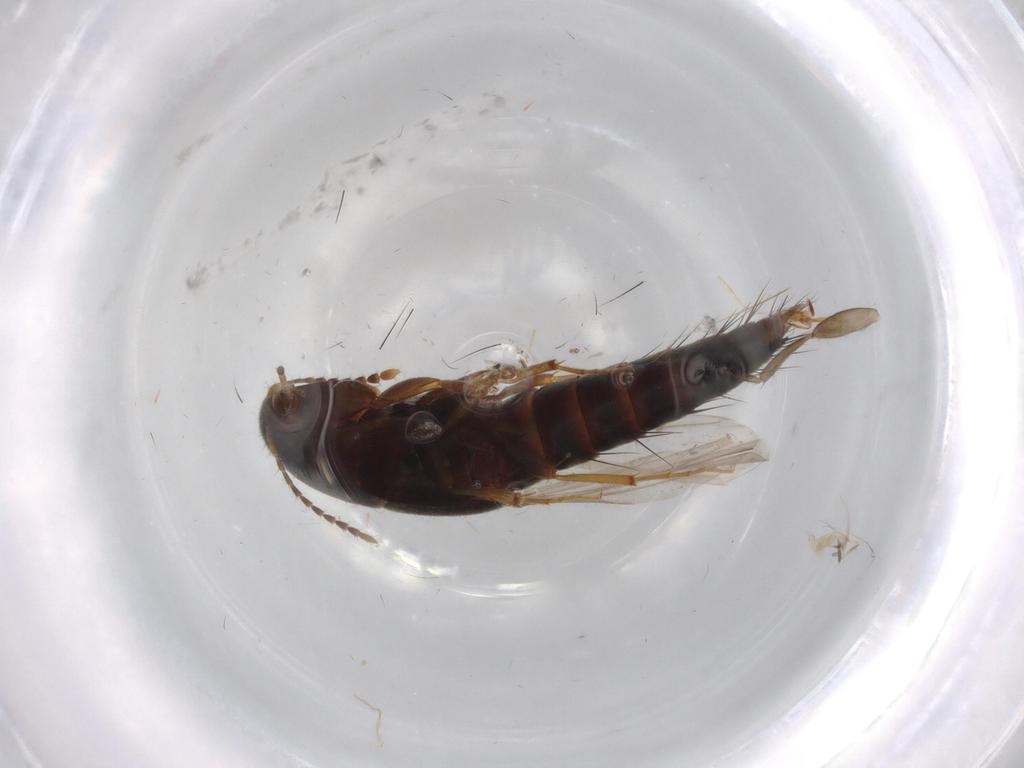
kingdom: Animalia
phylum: Arthropoda
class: Insecta
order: Coleoptera
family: Staphylinidae
